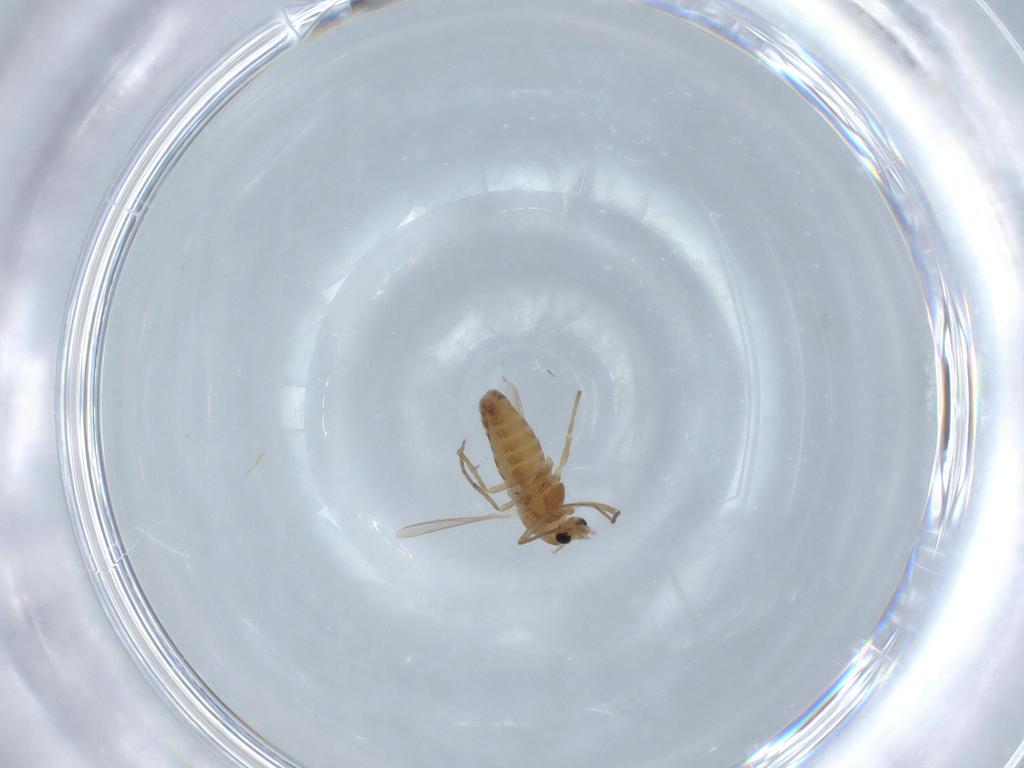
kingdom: Animalia
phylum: Arthropoda
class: Insecta
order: Diptera
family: Chironomidae
